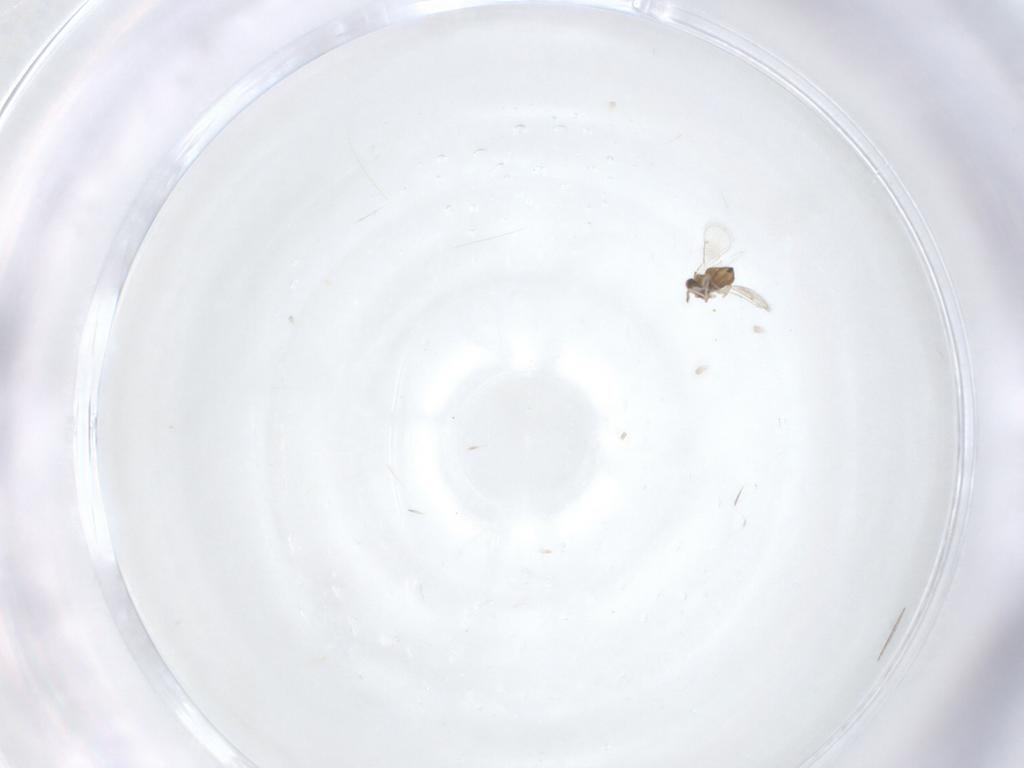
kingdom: Animalia
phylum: Arthropoda
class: Insecta
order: Hymenoptera
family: Eulophidae
